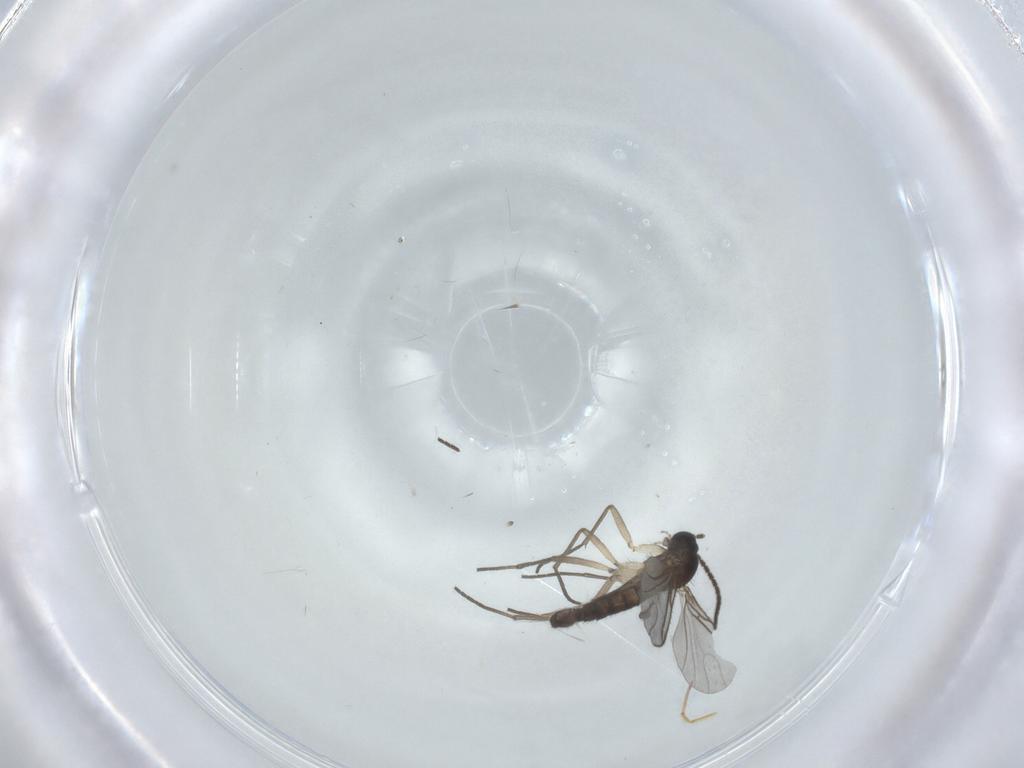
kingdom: Animalia
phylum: Arthropoda
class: Insecta
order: Diptera
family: Sciaridae
